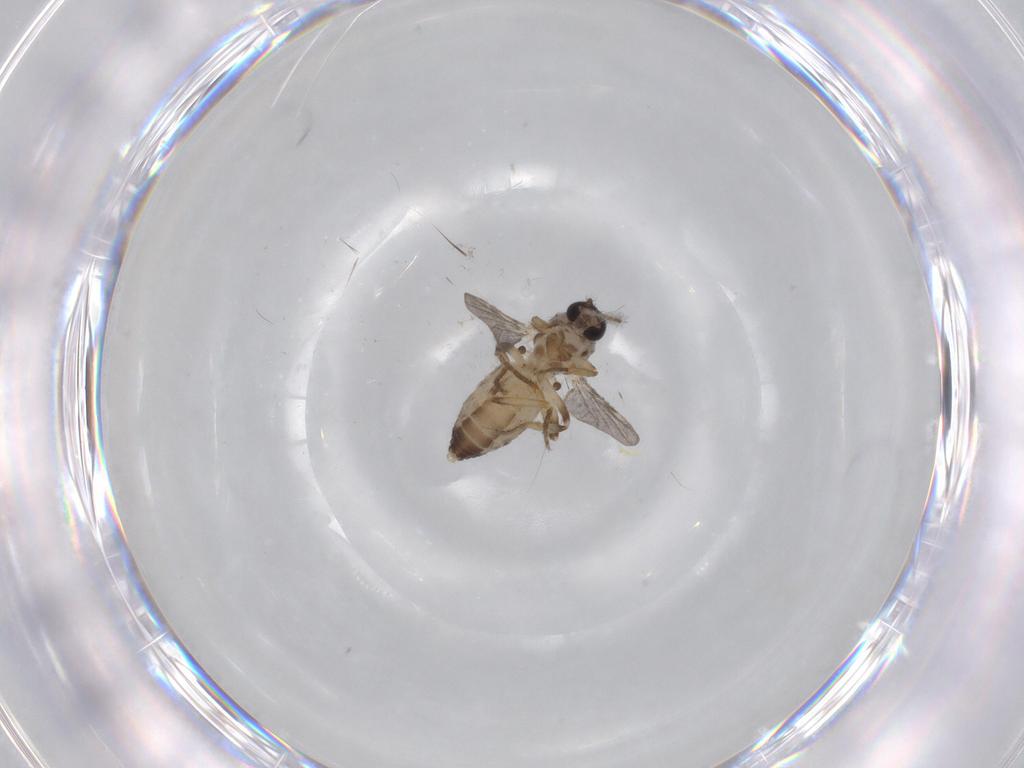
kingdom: Animalia
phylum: Arthropoda
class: Insecta
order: Diptera
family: Ceratopogonidae
